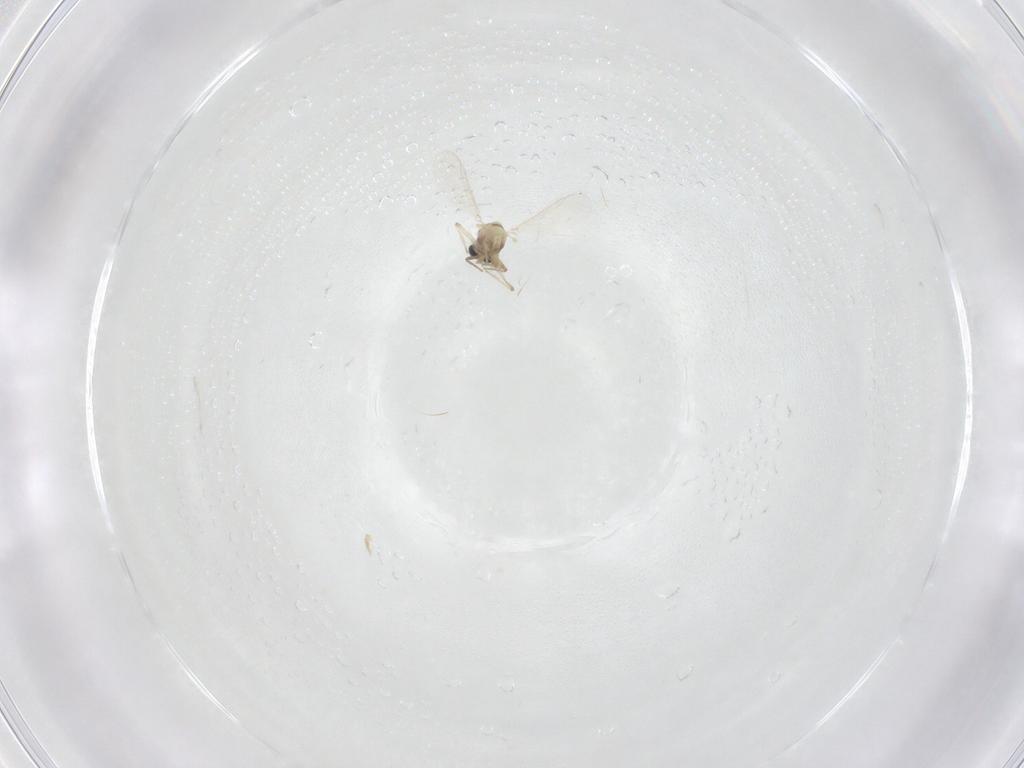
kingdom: Animalia
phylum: Arthropoda
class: Insecta
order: Diptera
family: Chironomidae
